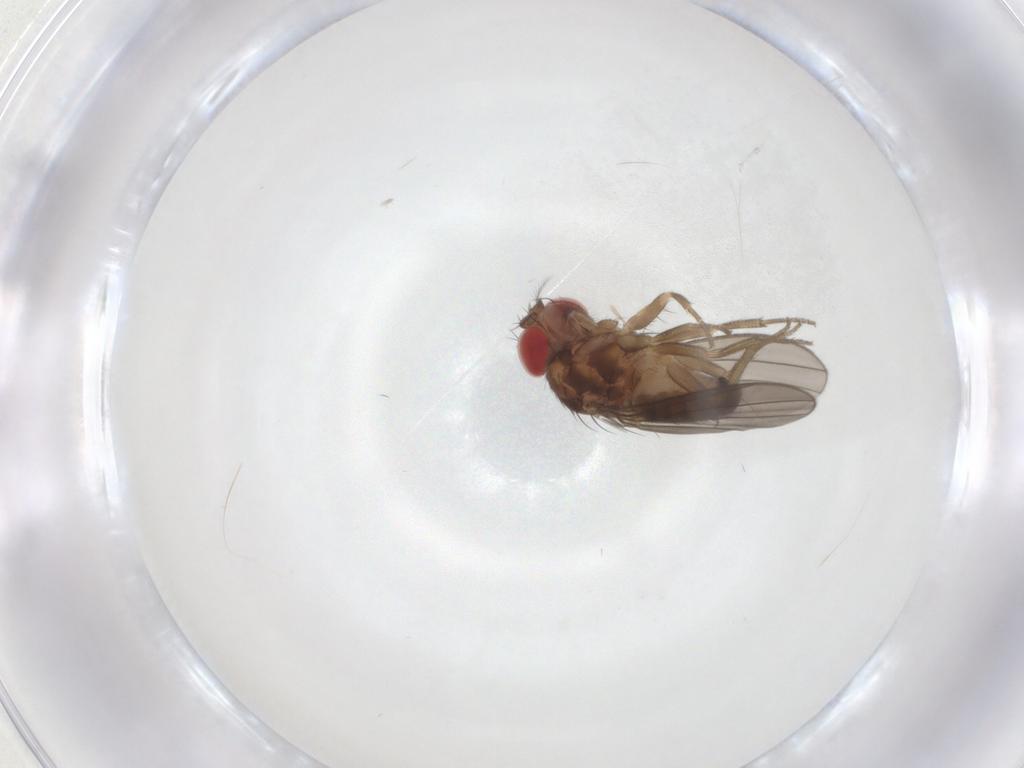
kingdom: Animalia
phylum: Arthropoda
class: Insecta
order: Diptera
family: Drosophilidae
